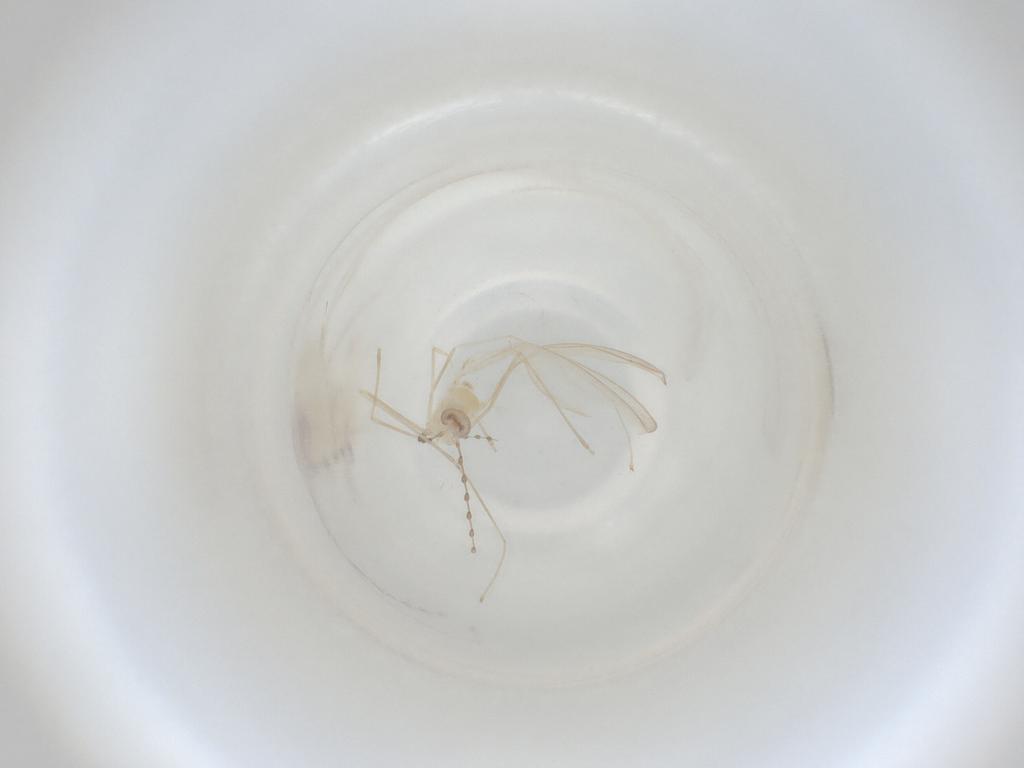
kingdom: Animalia
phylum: Arthropoda
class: Insecta
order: Diptera
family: Cecidomyiidae
